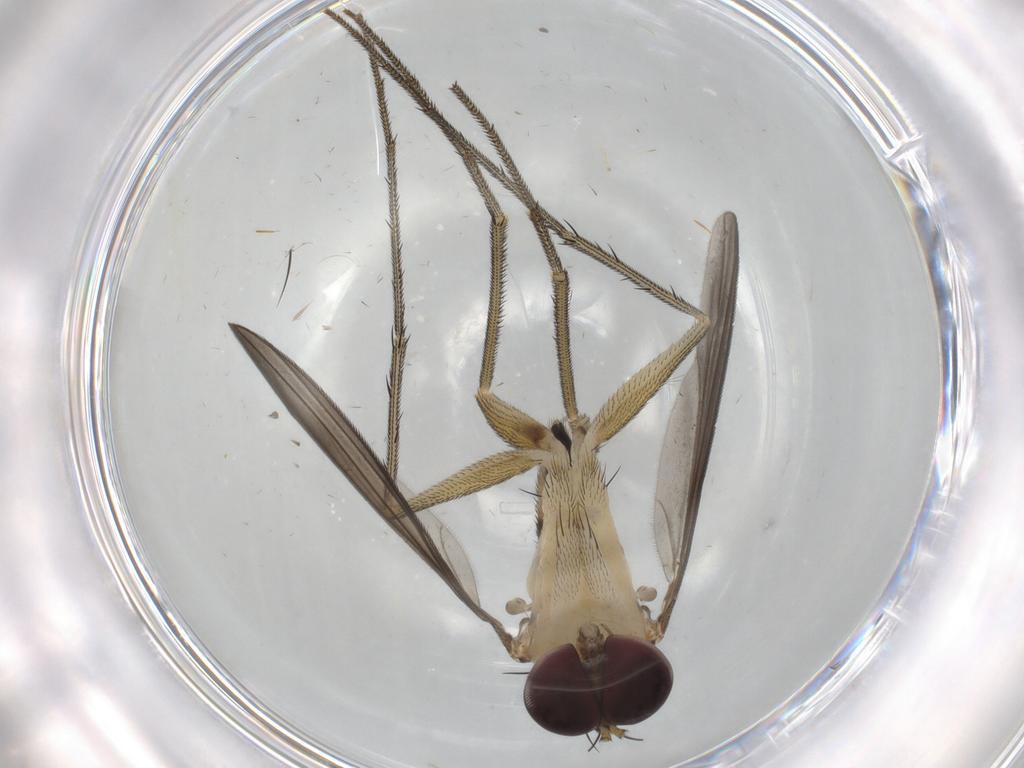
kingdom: Animalia
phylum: Arthropoda
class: Insecta
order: Diptera
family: Dolichopodidae
